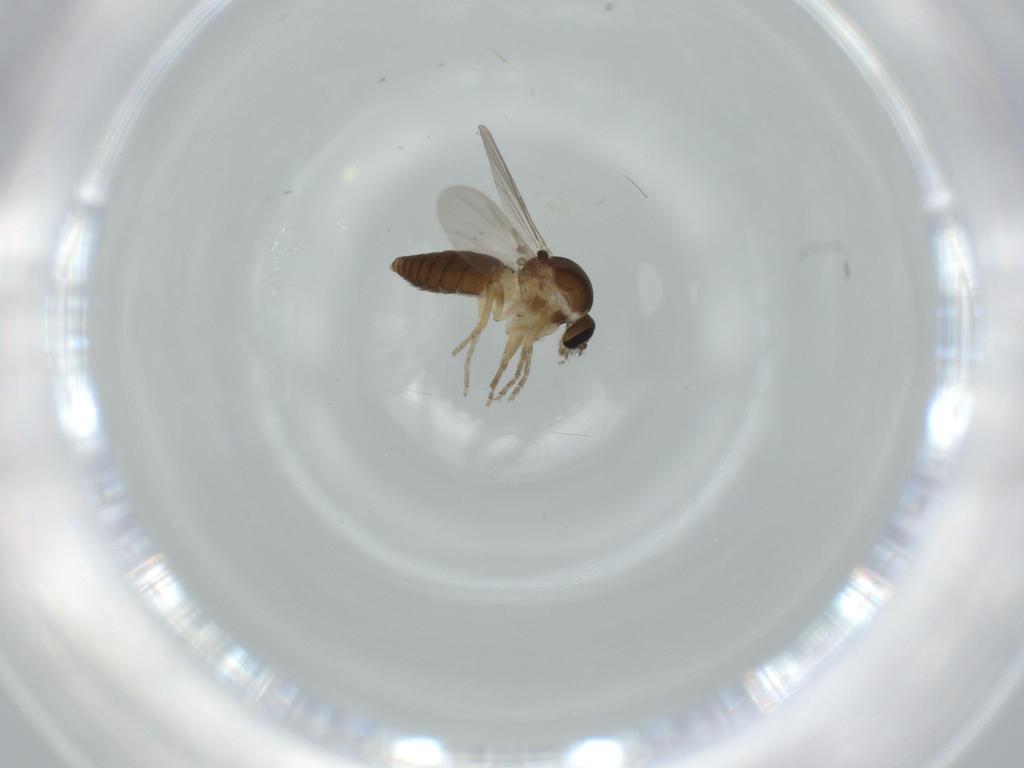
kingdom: Animalia
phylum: Arthropoda
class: Insecta
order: Diptera
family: Ceratopogonidae
